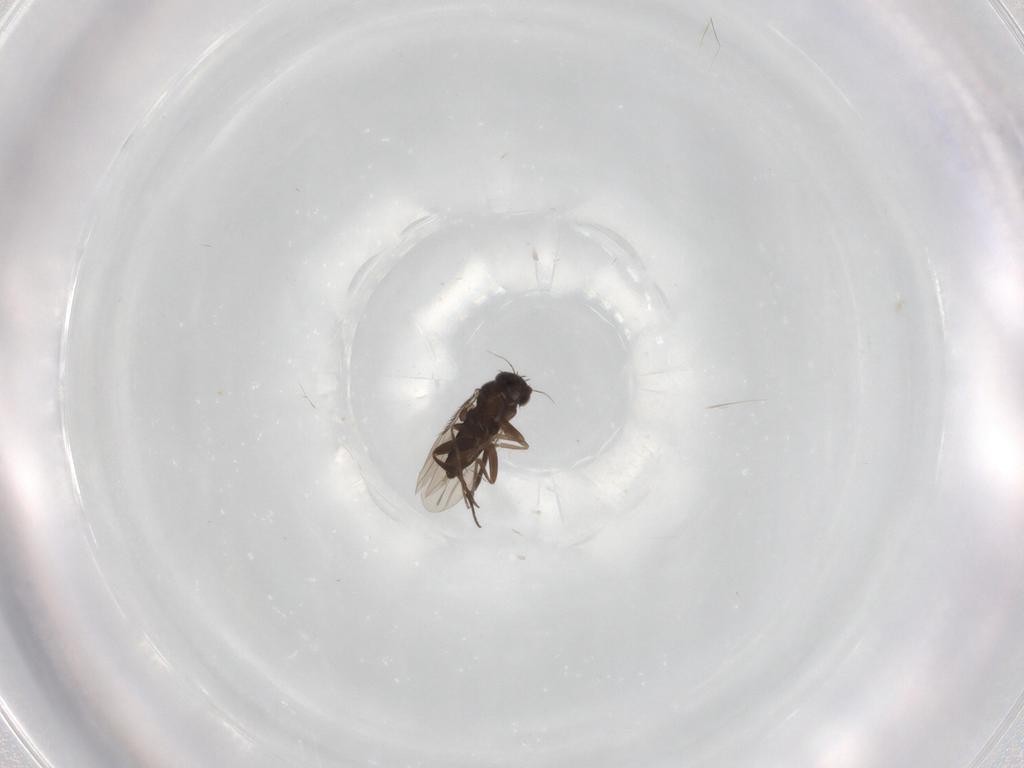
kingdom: Animalia
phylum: Arthropoda
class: Insecta
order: Diptera
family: Phoridae
